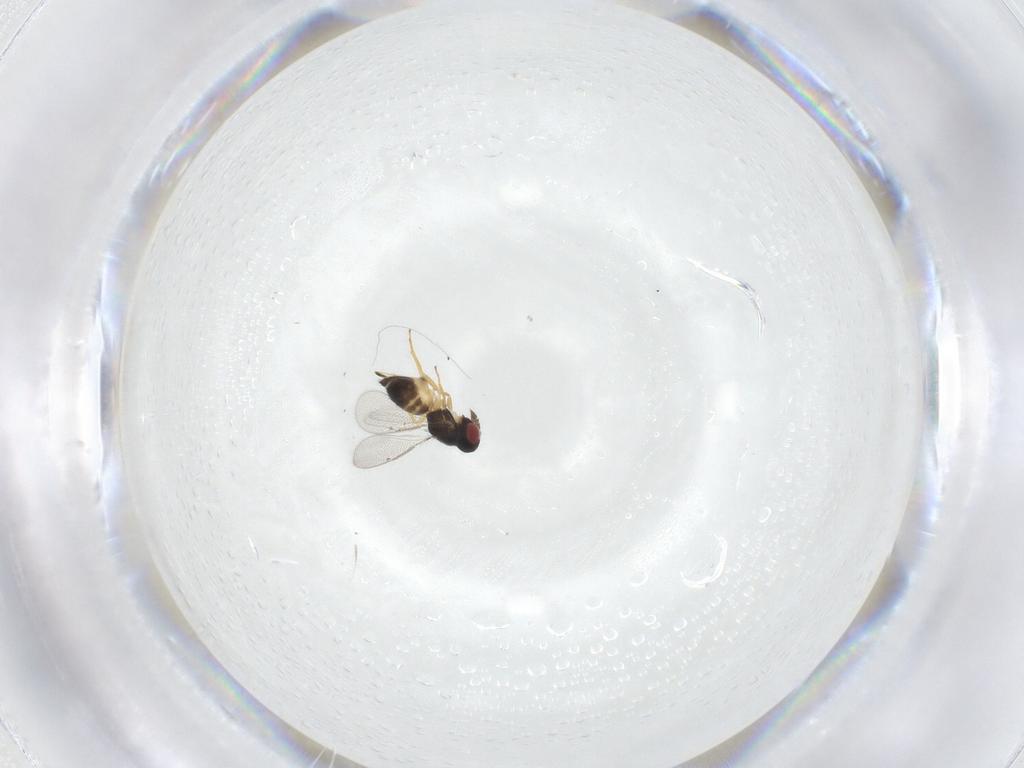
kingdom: Animalia
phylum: Arthropoda
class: Insecta
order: Hymenoptera
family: Eulophidae
